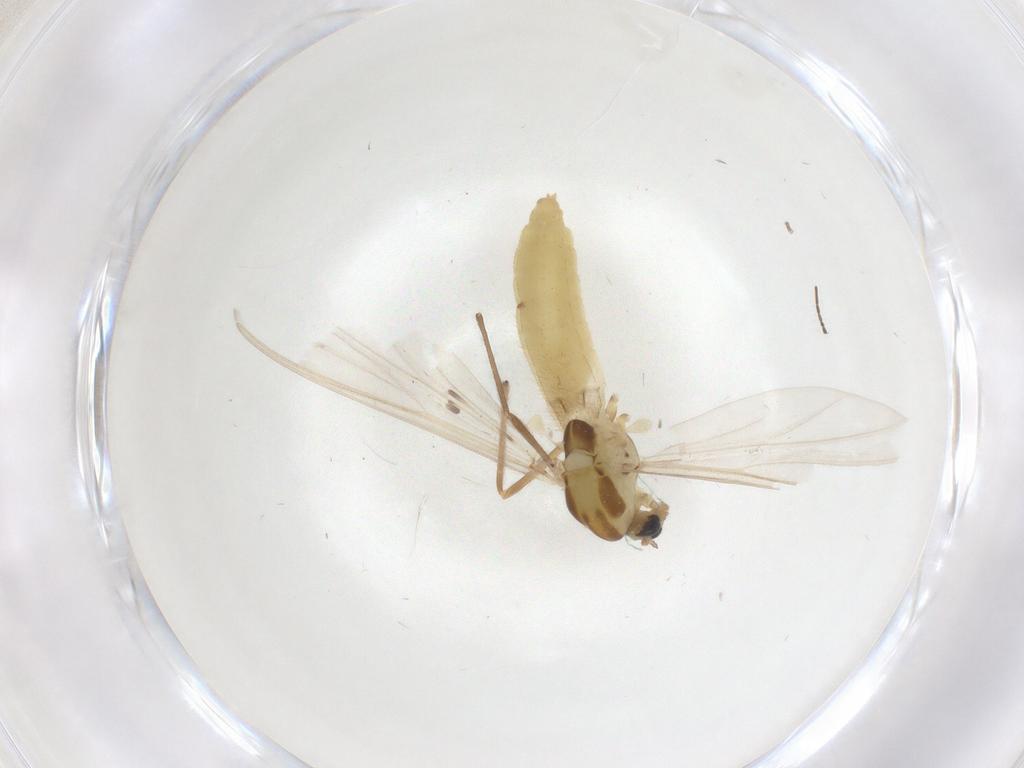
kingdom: Animalia
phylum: Arthropoda
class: Insecta
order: Diptera
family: Chironomidae
